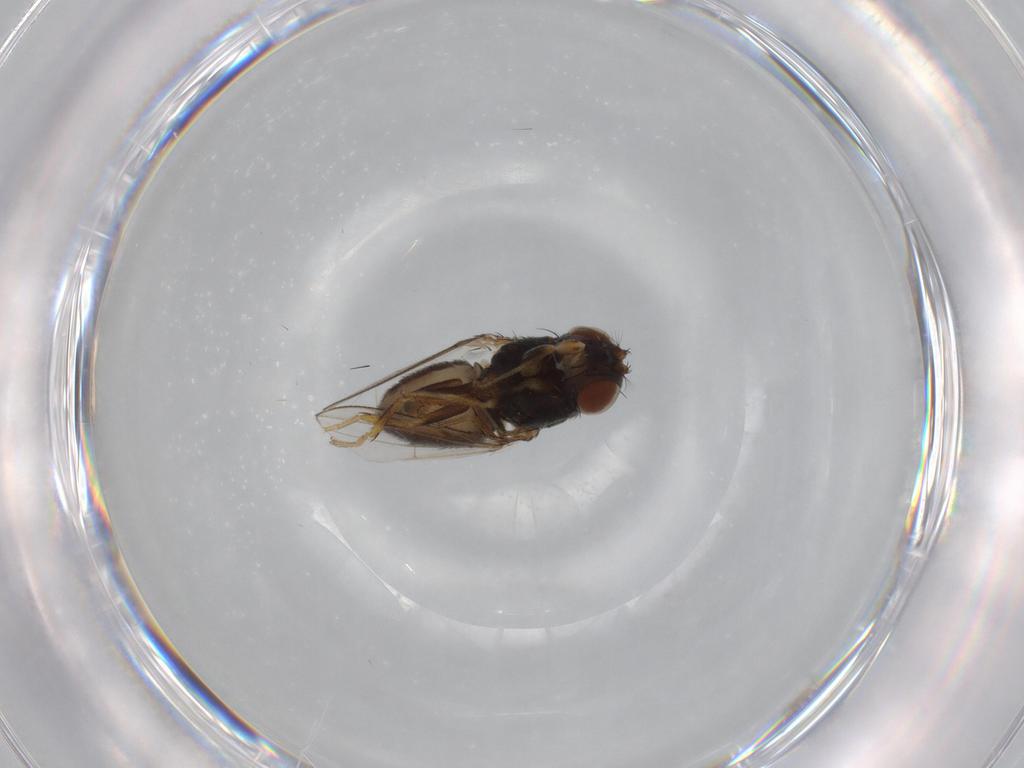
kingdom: Animalia
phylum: Arthropoda
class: Insecta
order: Diptera
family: Ephydridae
